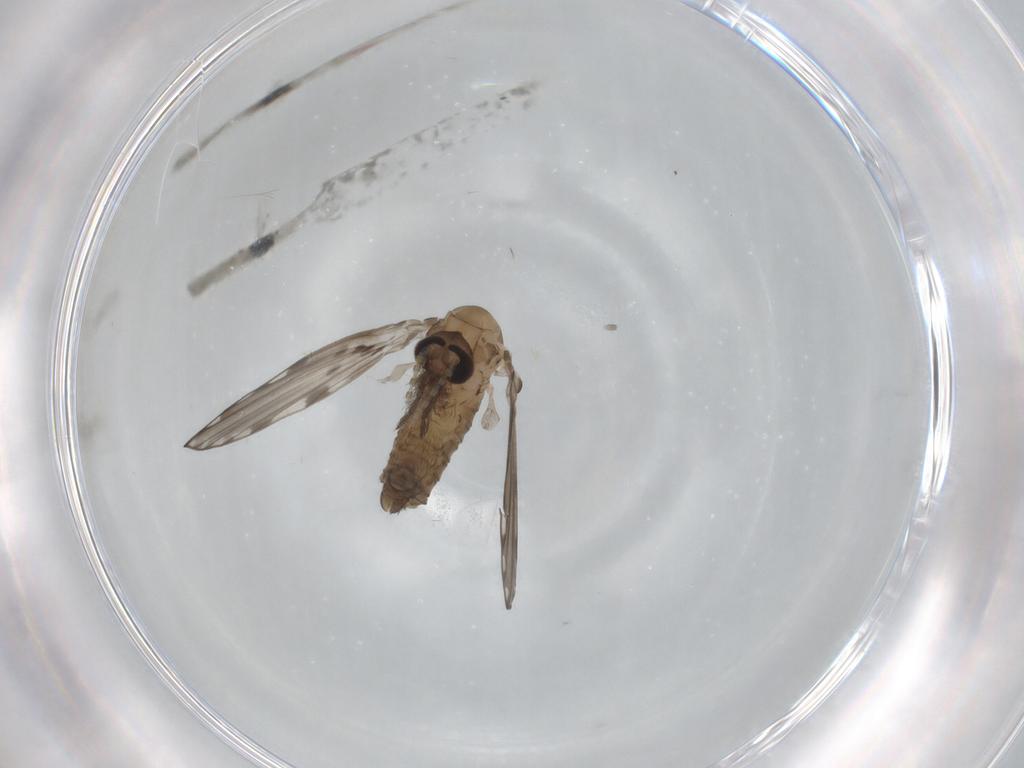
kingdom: Animalia
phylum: Arthropoda
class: Insecta
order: Diptera
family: Psychodidae
